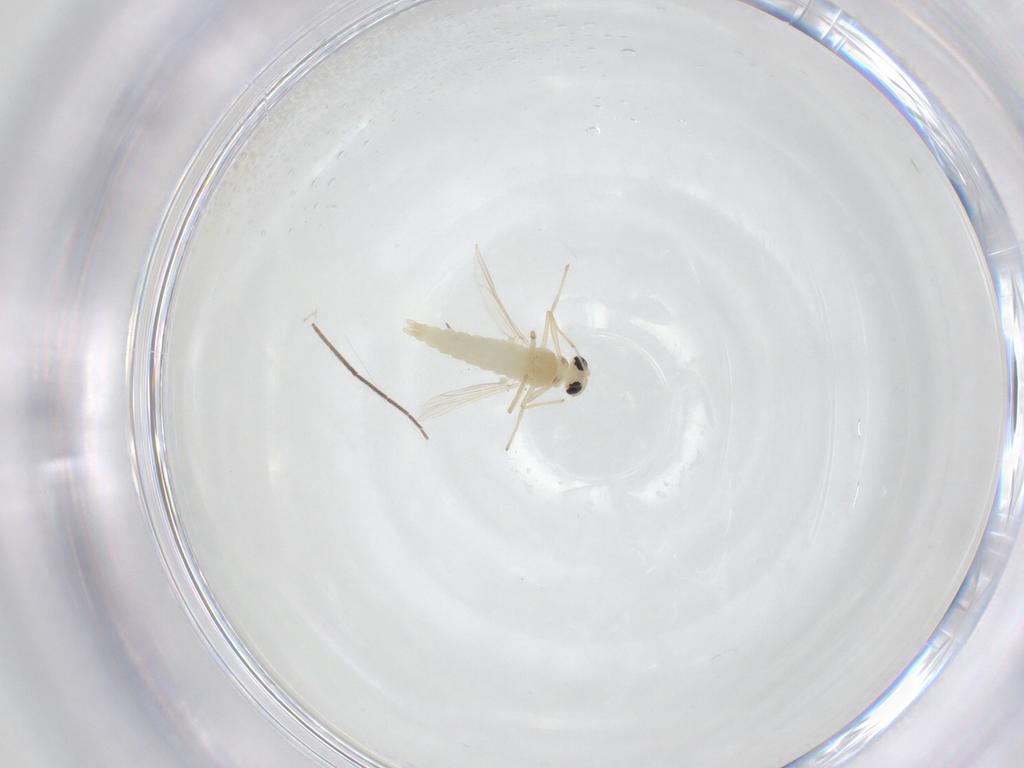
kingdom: Animalia
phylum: Arthropoda
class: Insecta
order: Diptera
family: Chironomidae
